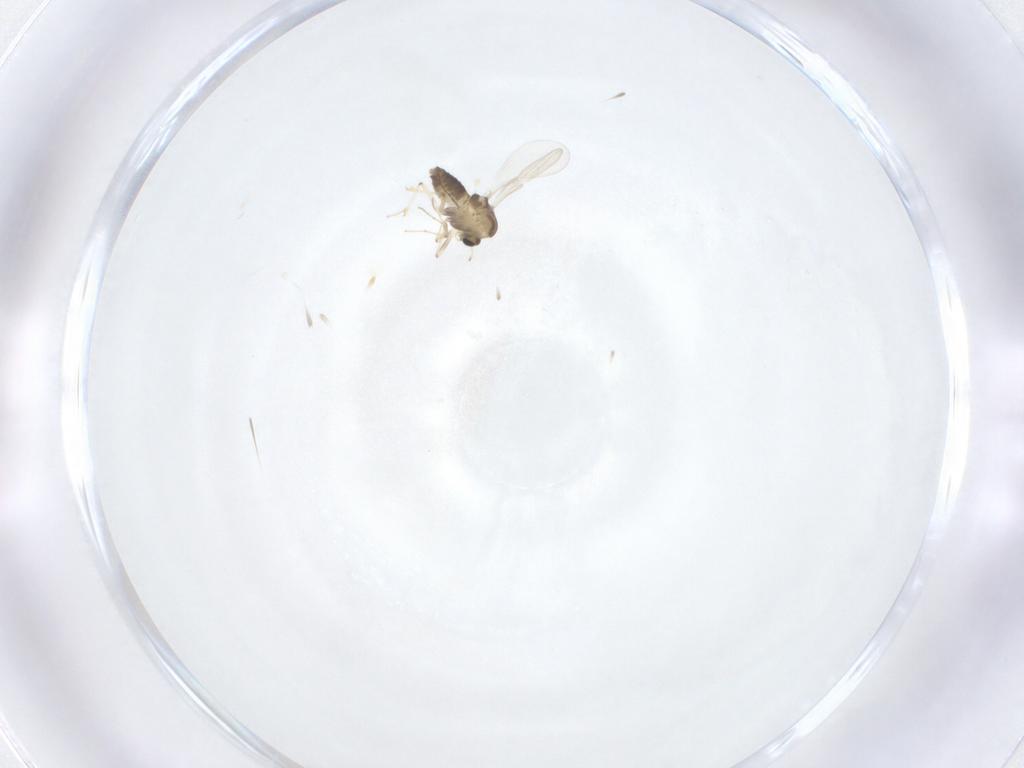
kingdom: Animalia
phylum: Arthropoda
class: Insecta
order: Diptera
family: Chironomidae
